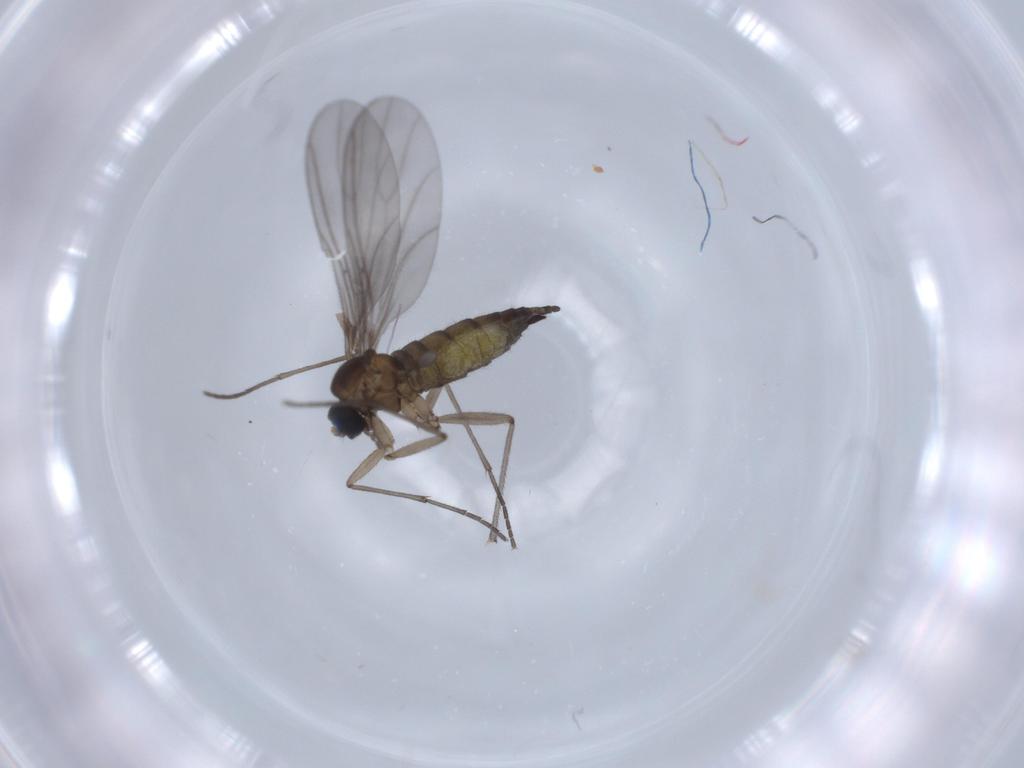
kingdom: Animalia
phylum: Arthropoda
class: Insecta
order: Diptera
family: Sciaridae
